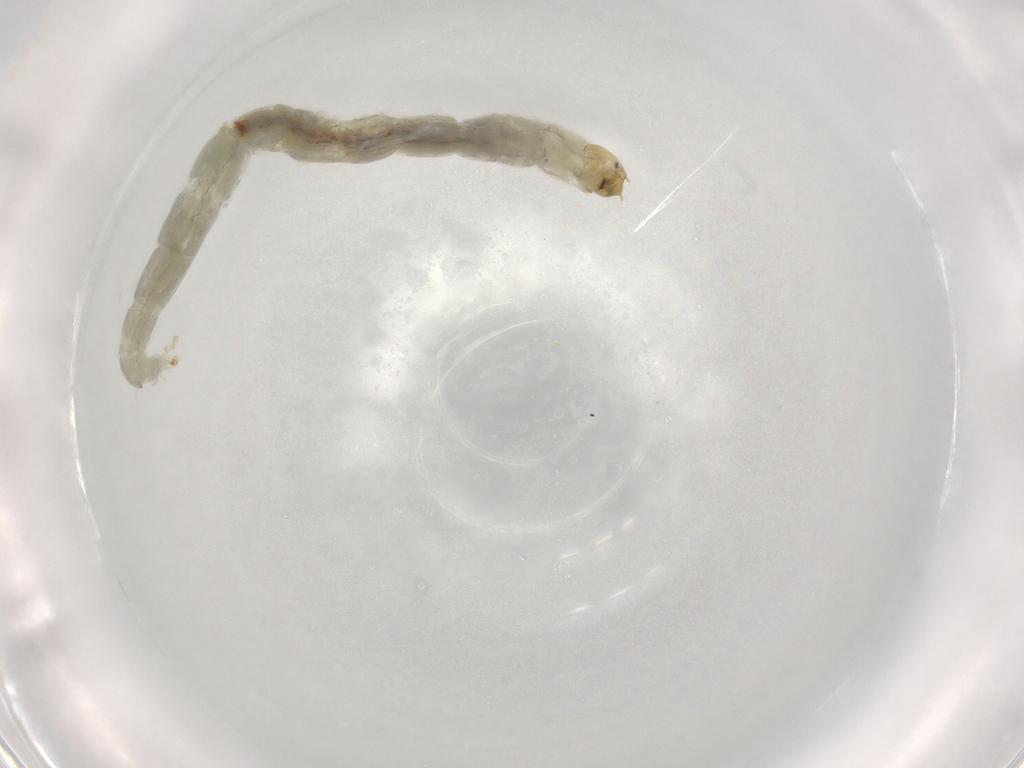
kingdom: Animalia
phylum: Arthropoda
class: Insecta
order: Diptera
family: Chironomidae
